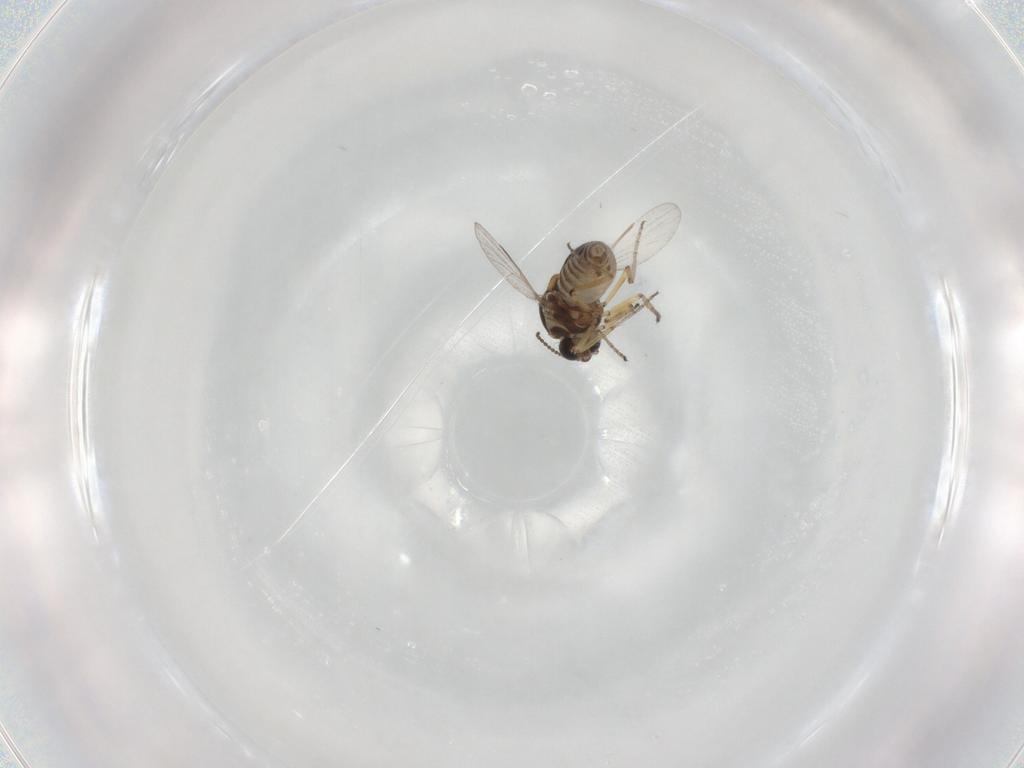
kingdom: Animalia
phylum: Arthropoda
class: Insecta
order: Diptera
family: Ceratopogonidae
